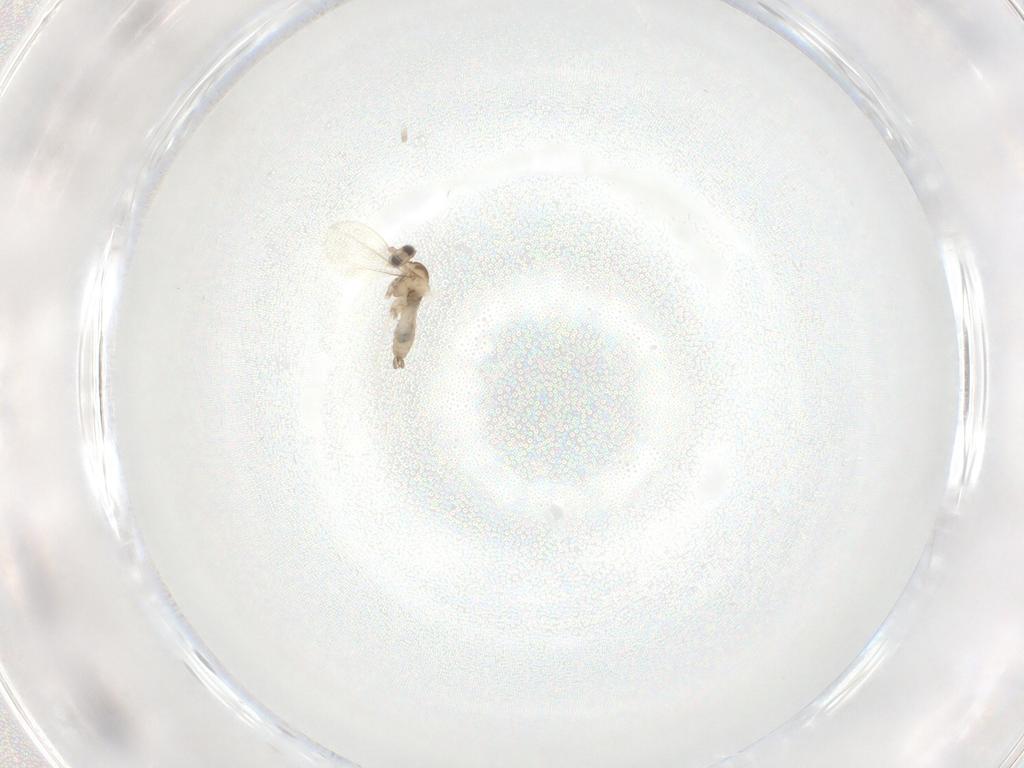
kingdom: Animalia
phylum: Arthropoda
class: Insecta
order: Diptera
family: Cecidomyiidae
